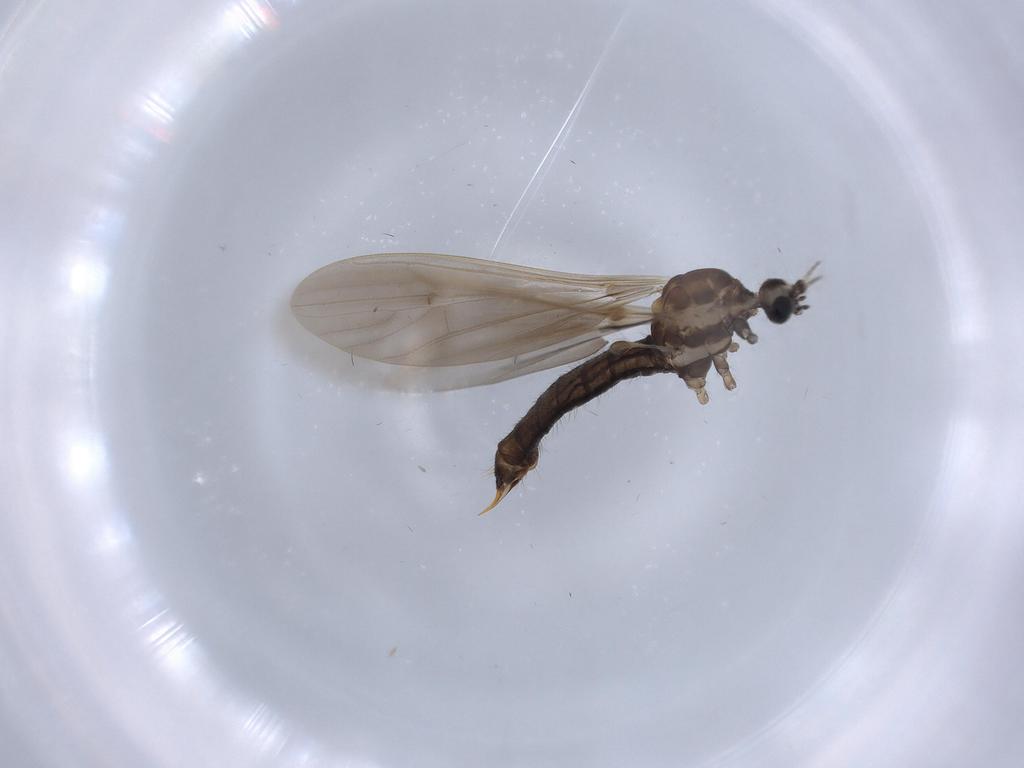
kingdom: Animalia
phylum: Arthropoda
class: Insecta
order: Diptera
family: Limoniidae
